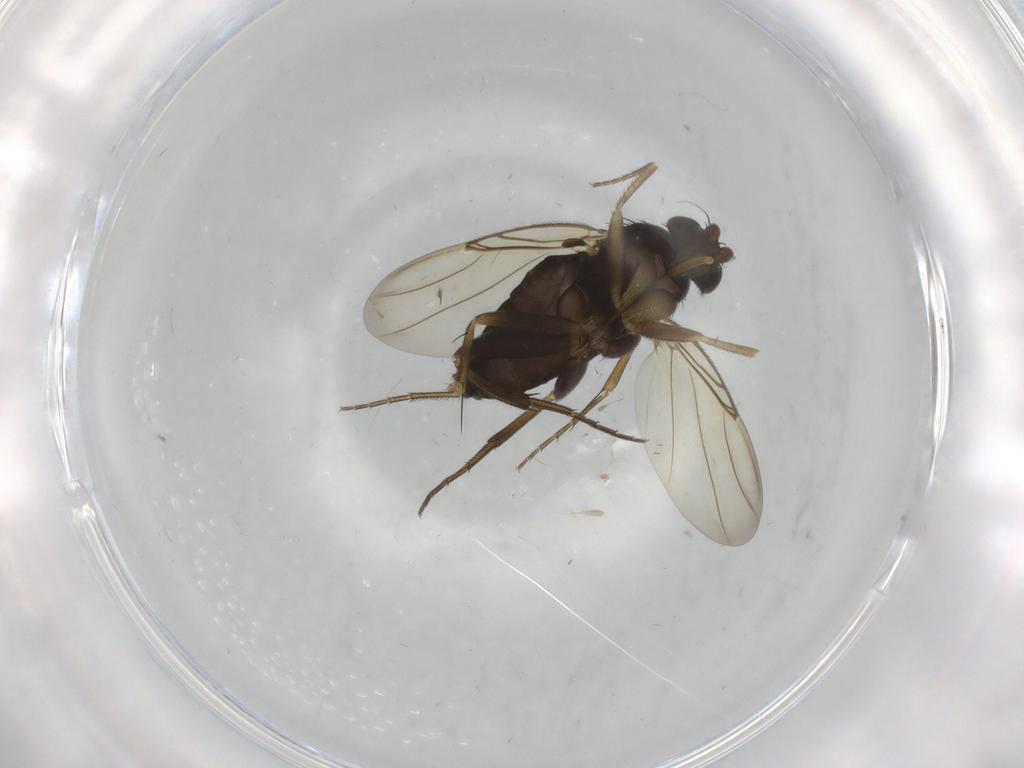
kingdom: Animalia
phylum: Arthropoda
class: Insecta
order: Diptera
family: Phoridae
